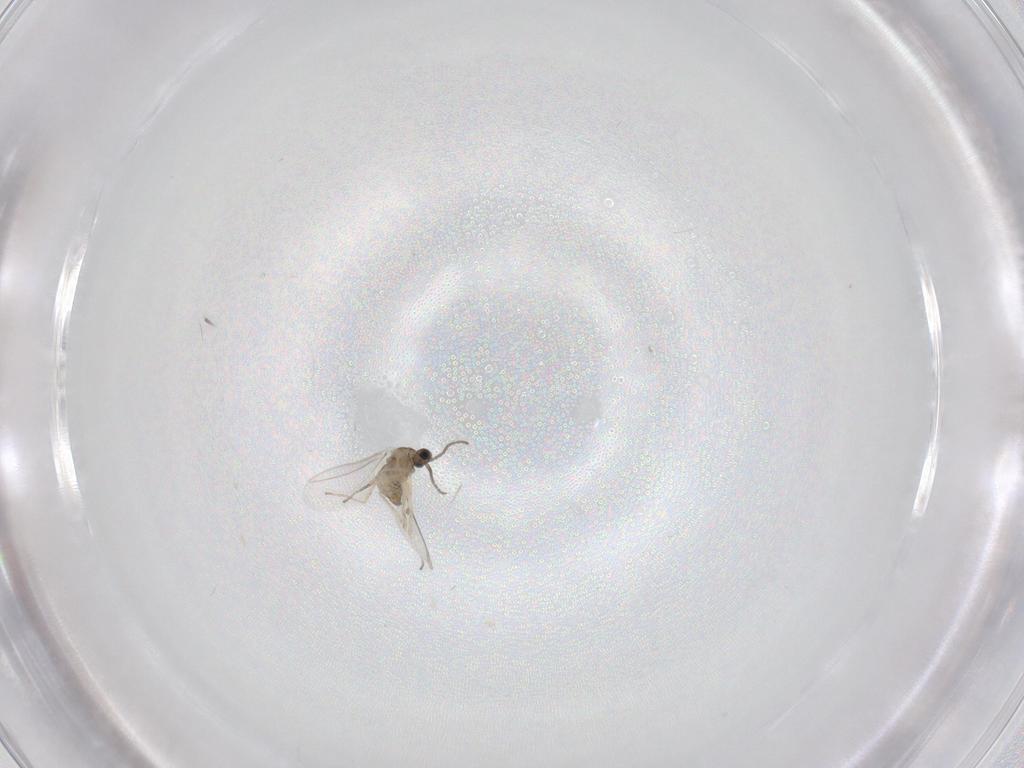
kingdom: Animalia
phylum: Arthropoda
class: Insecta
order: Diptera
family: Cecidomyiidae
